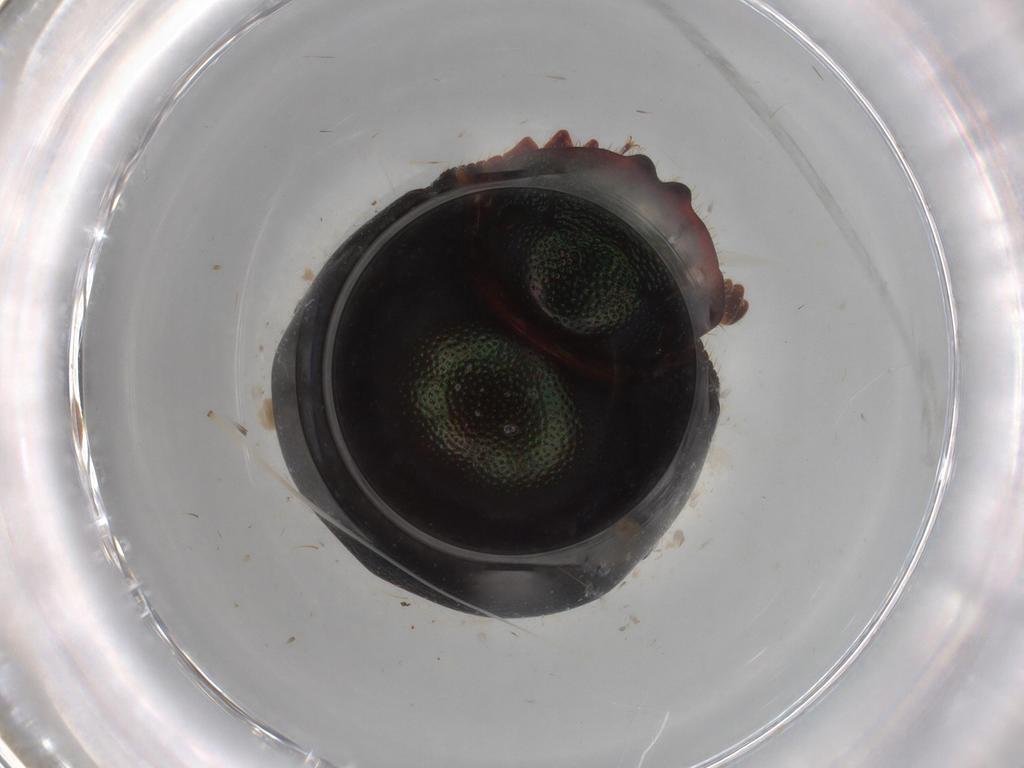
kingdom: Animalia
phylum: Arthropoda
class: Insecta
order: Coleoptera
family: Scarabaeidae
